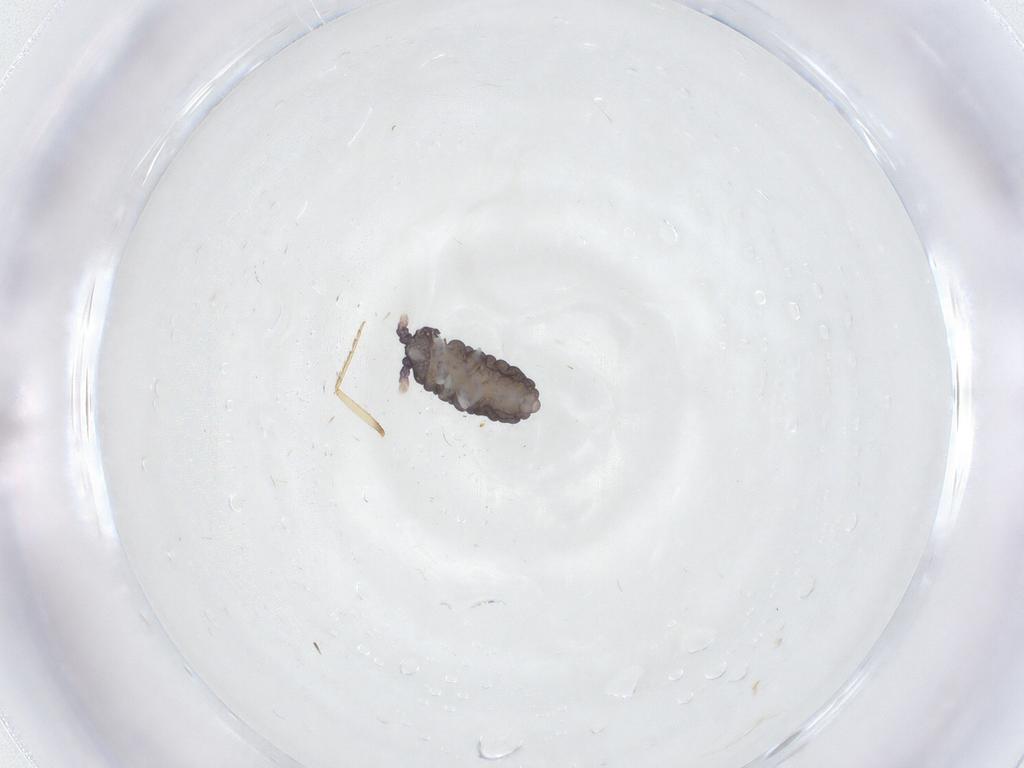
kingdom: Animalia
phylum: Arthropoda
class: Collembola
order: Poduromorpha
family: Neanuridae
